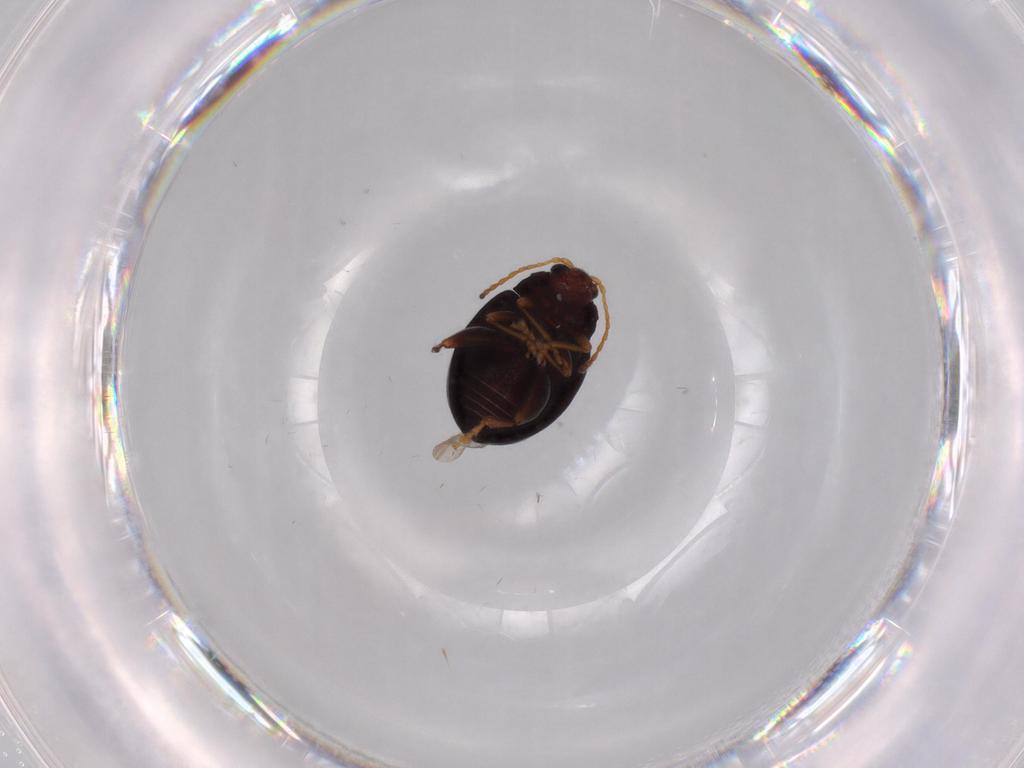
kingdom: Animalia
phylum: Arthropoda
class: Insecta
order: Coleoptera
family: Chrysomelidae
